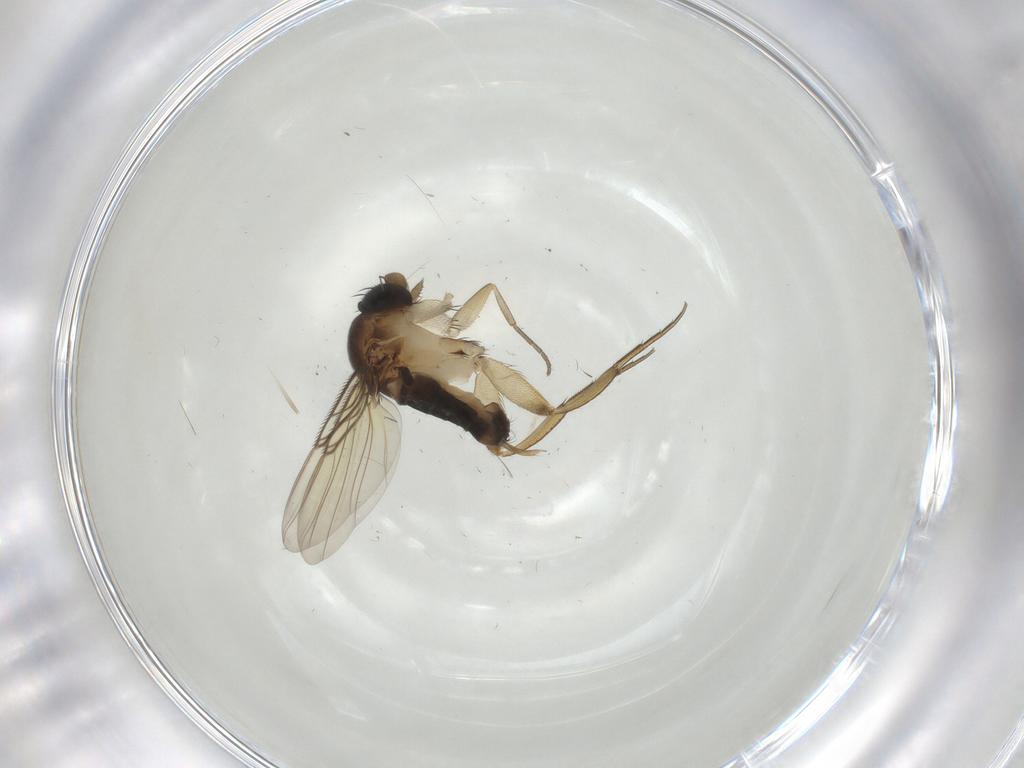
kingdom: Animalia
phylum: Arthropoda
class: Insecta
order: Diptera
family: Phoridae
